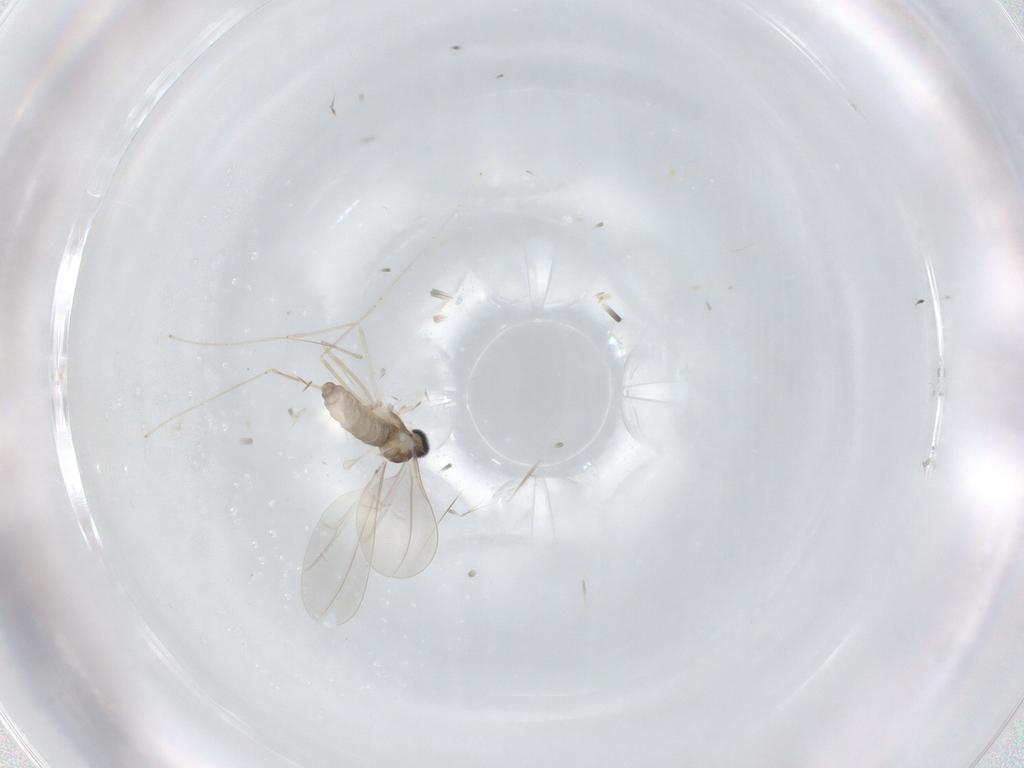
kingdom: Animalia
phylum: Arthropoda
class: Insecta
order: Diptera
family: Cecidomyiidae
